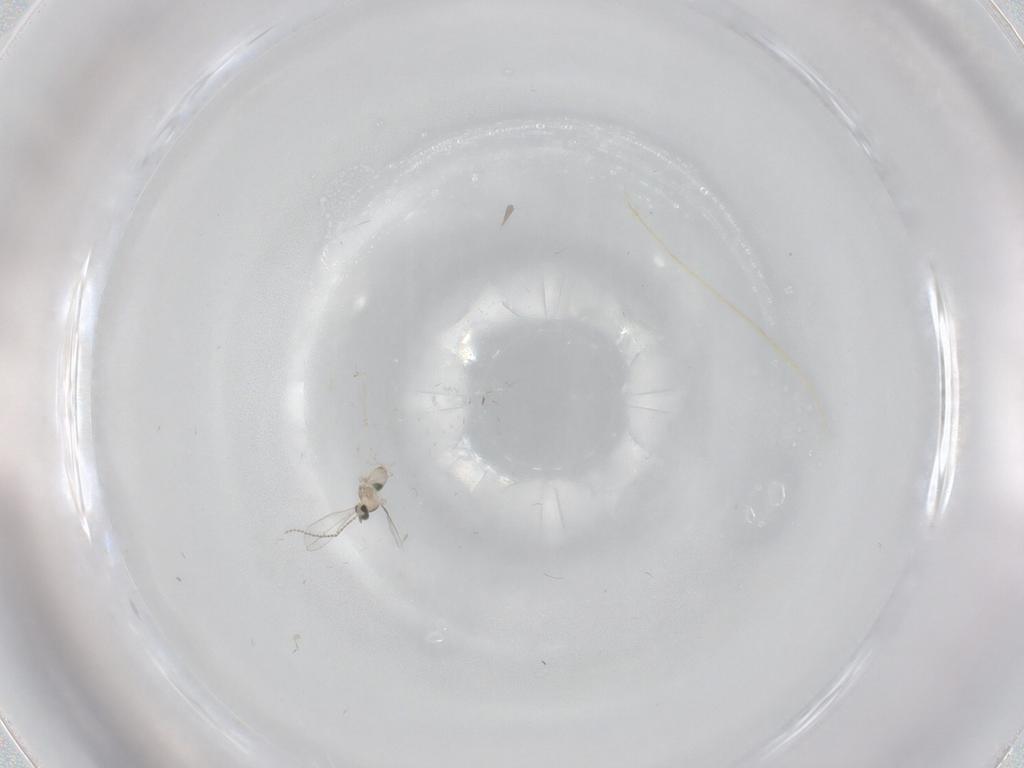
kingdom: Animalia
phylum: Arthropoda
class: Insecta
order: Diptera
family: Cecidomyiidae
